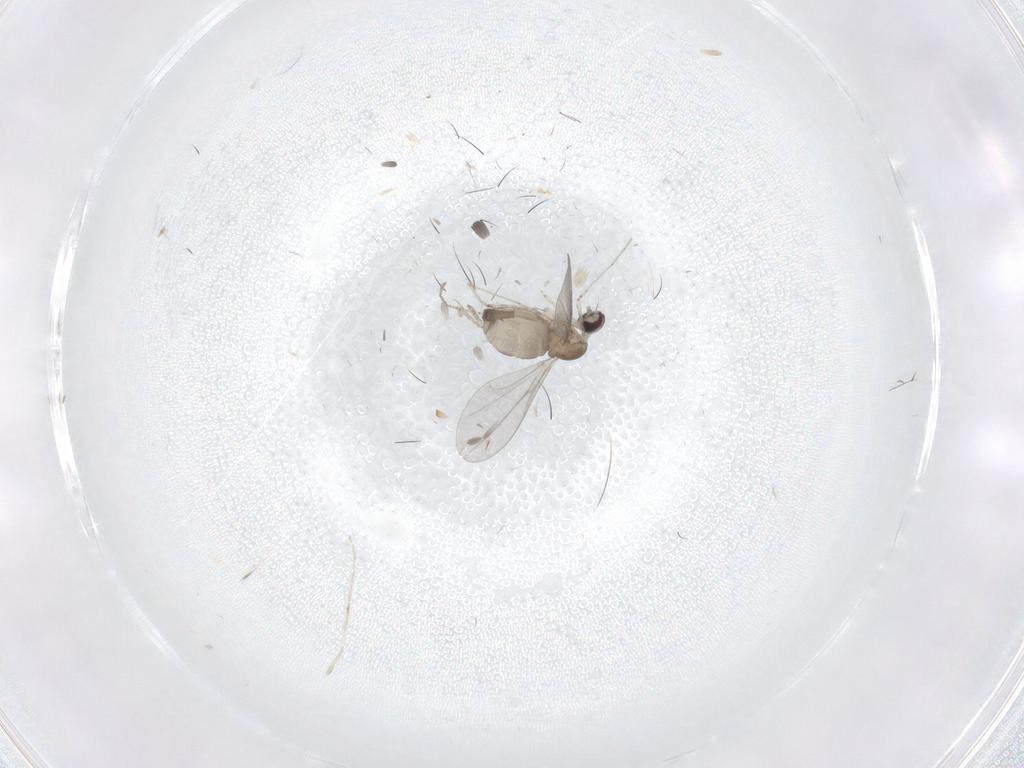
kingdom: Animalia
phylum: Arthropoda
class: Insecta
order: Diptera
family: Cecidomyiidae
